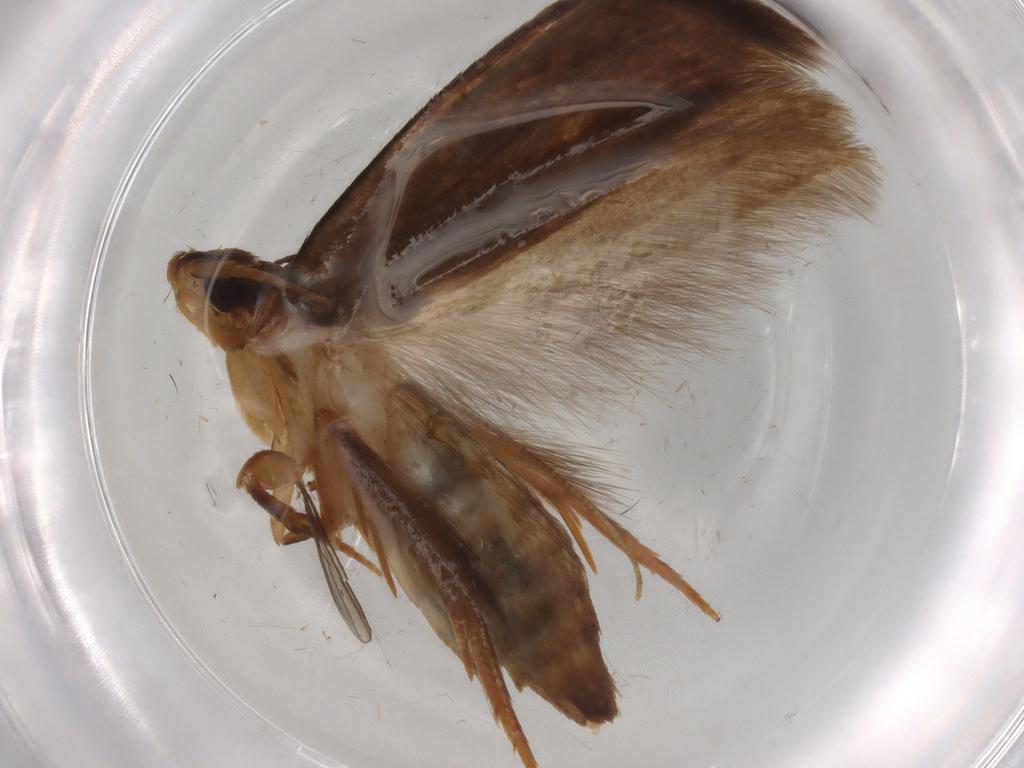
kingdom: Animalia
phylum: Arthropoda
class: Insecta
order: Lepidoptera
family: Tineidae
